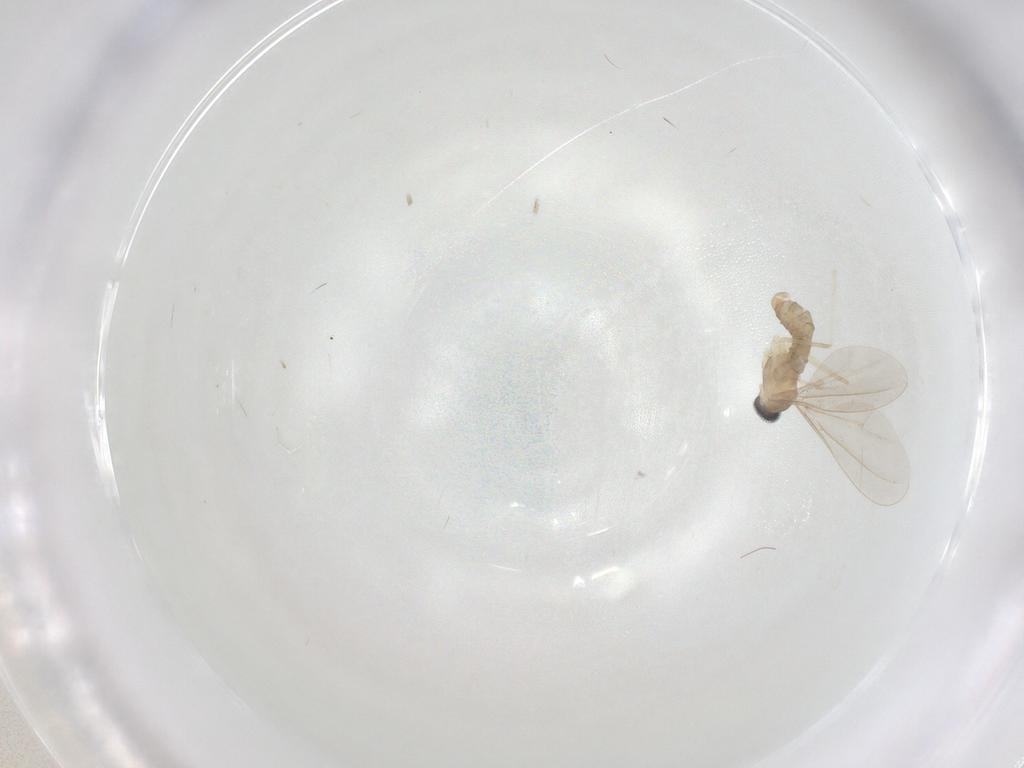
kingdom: Animalia
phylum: Arthropoda
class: Insecta
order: Diptera
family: Cecidomyiidae
